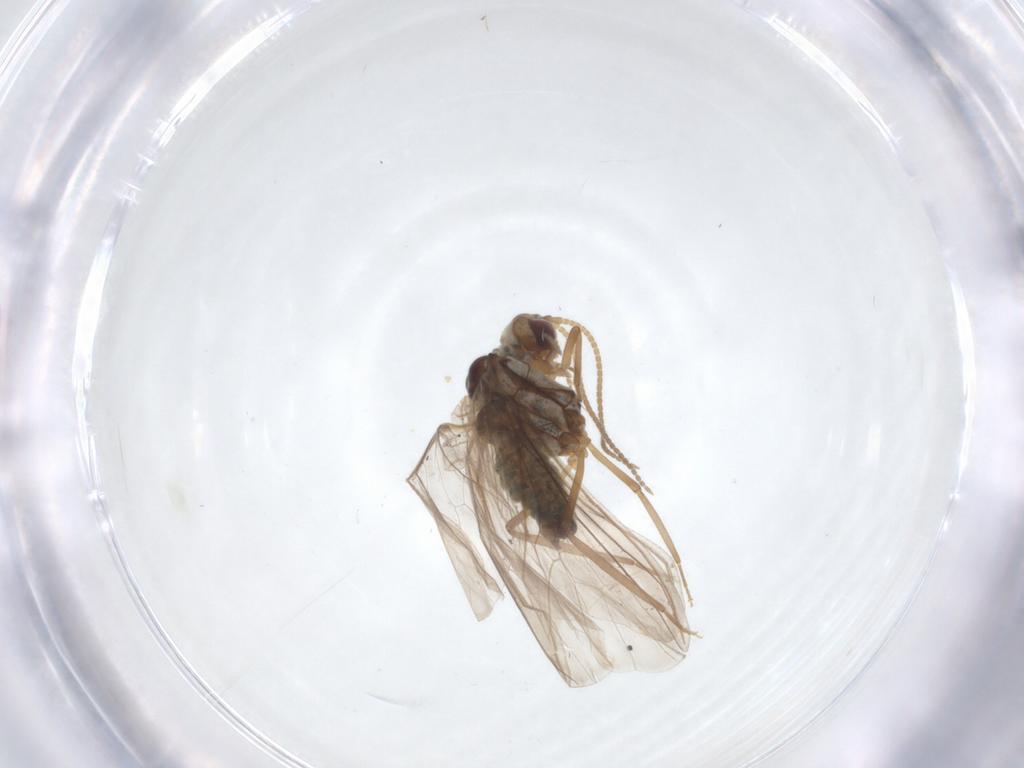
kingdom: Animalia
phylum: Arthropoda
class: Insecta
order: Neuroptera
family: Coniopterygidae
